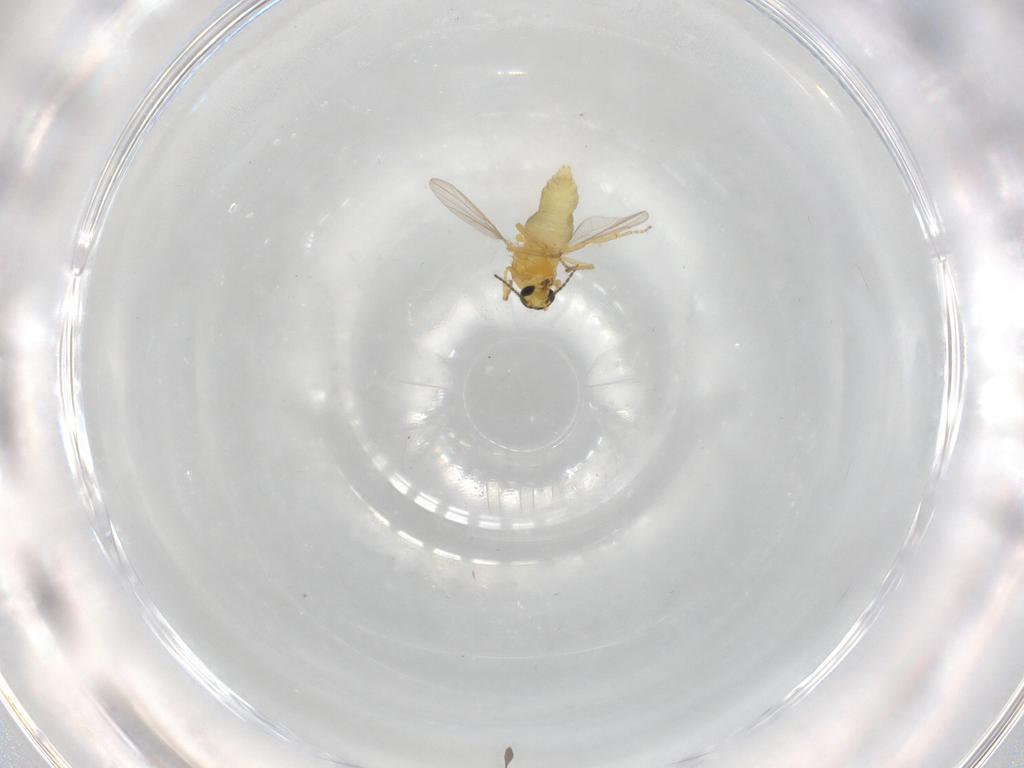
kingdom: Animalia
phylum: Arthropoda
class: Insecta
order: Diptera
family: Ceratopogonidae
